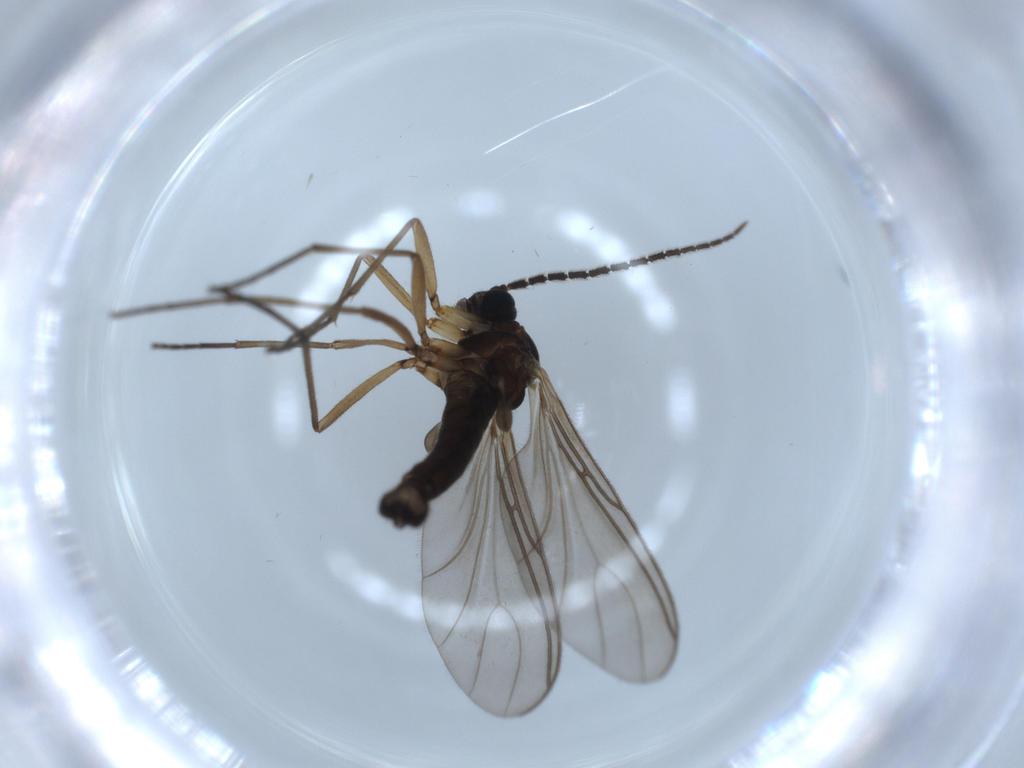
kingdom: Animalia
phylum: Arthropoda
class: Insecta
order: Diptera
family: Sciaridae
